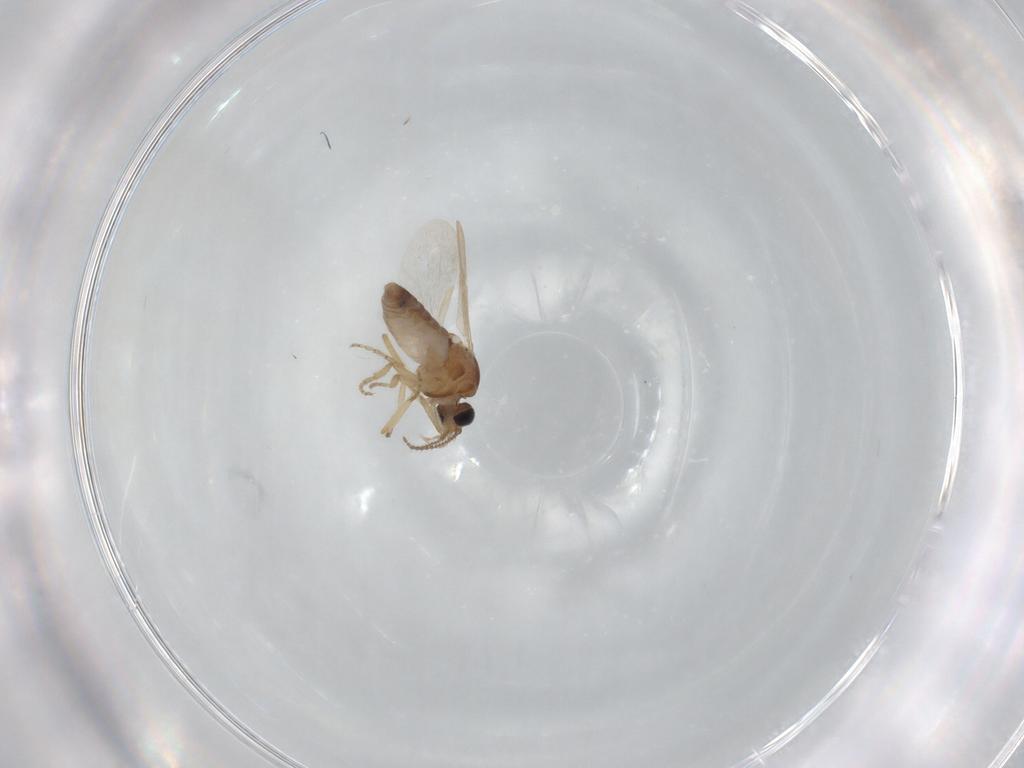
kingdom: Animalia
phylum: Arthropoda
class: Insecta
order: Diptera
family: Ceratopogonidae
